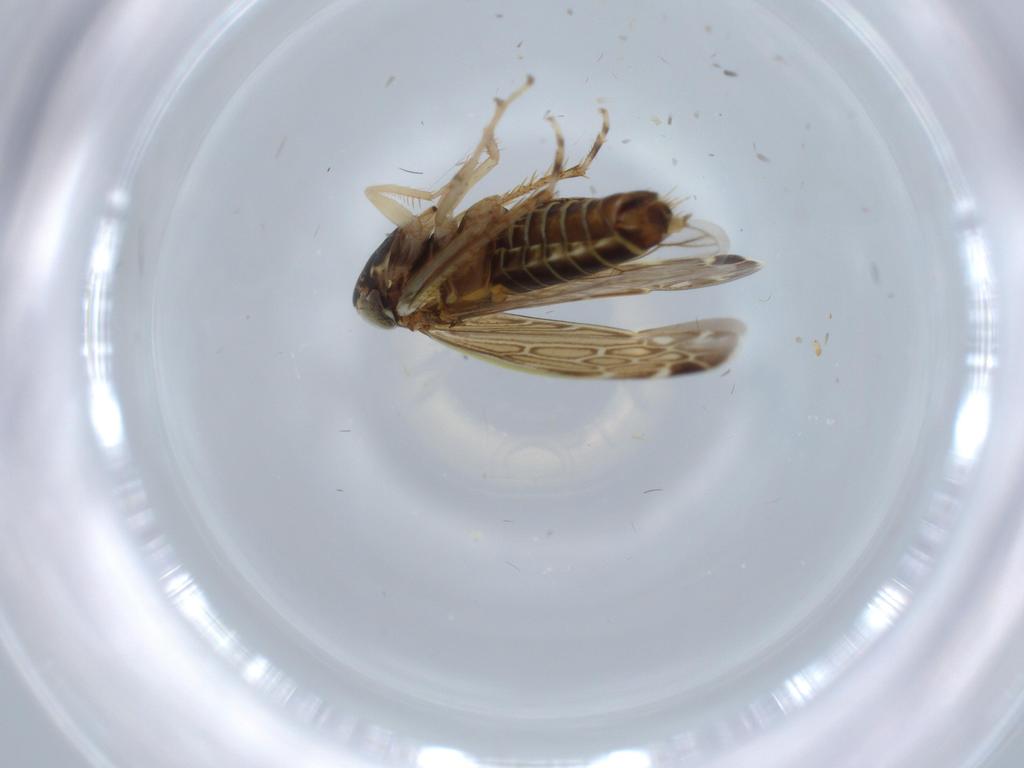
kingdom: Animalia
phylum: Arthropoda
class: Insecta
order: Hemiptera
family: Cicadellidae
